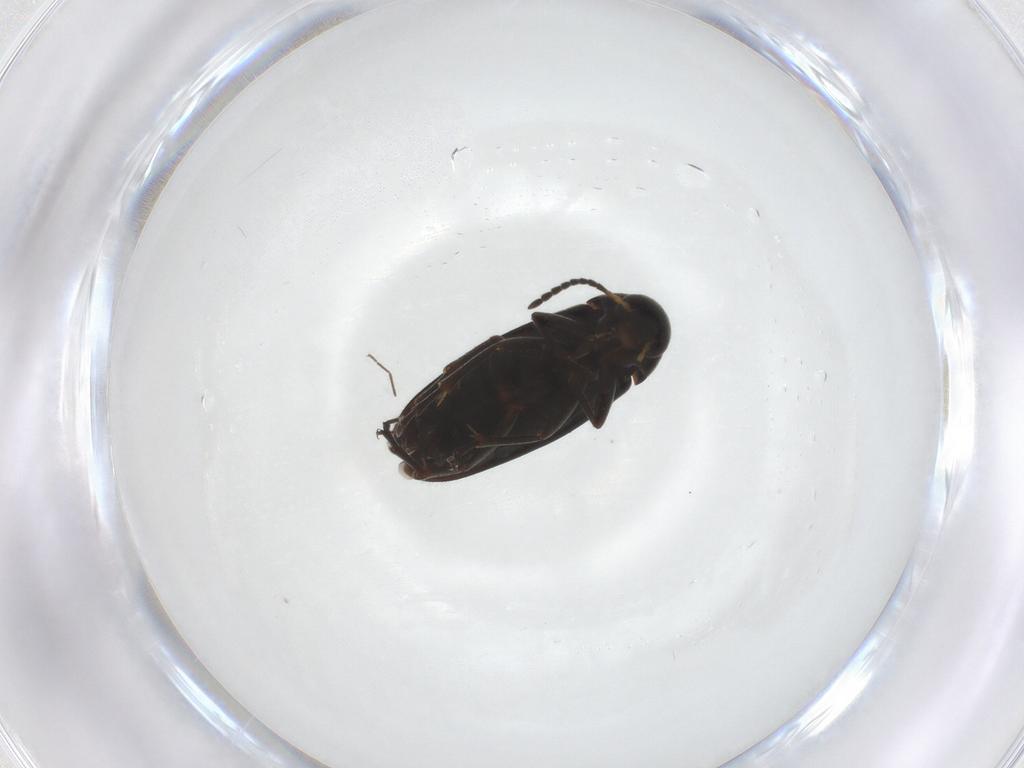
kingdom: Animalia
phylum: Arthropoda
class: Insecta
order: Coleoptera
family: Scraptiidae
